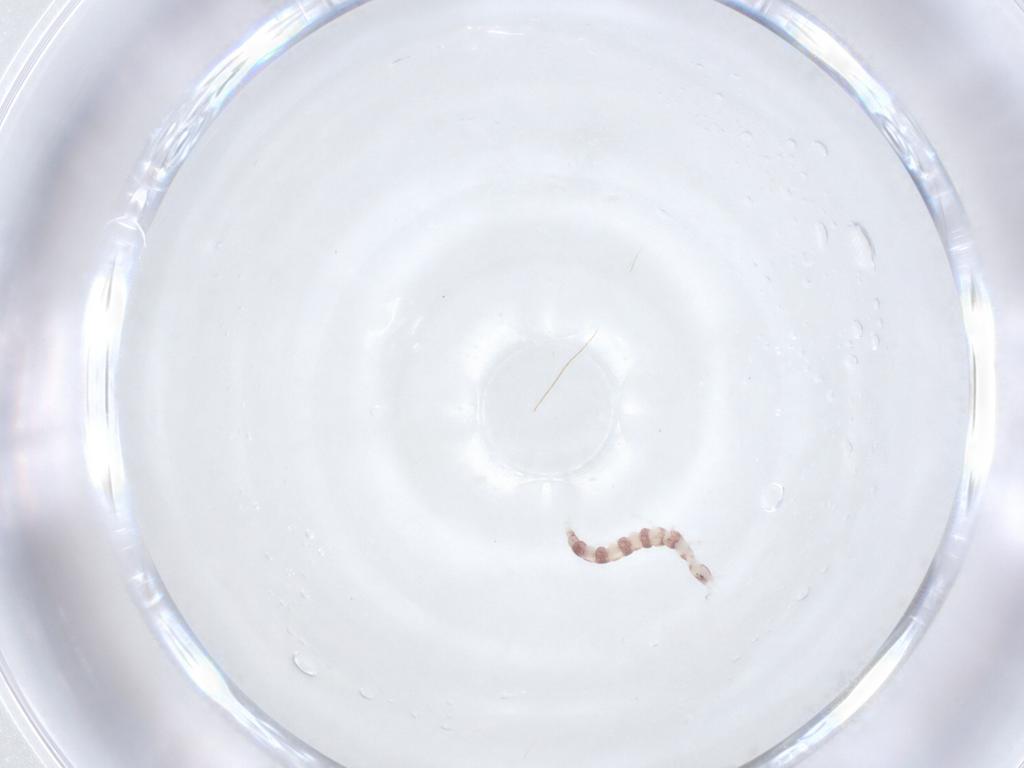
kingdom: Animalia
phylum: Arthropoda
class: Insecta
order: Neuroptera
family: Berothidae
